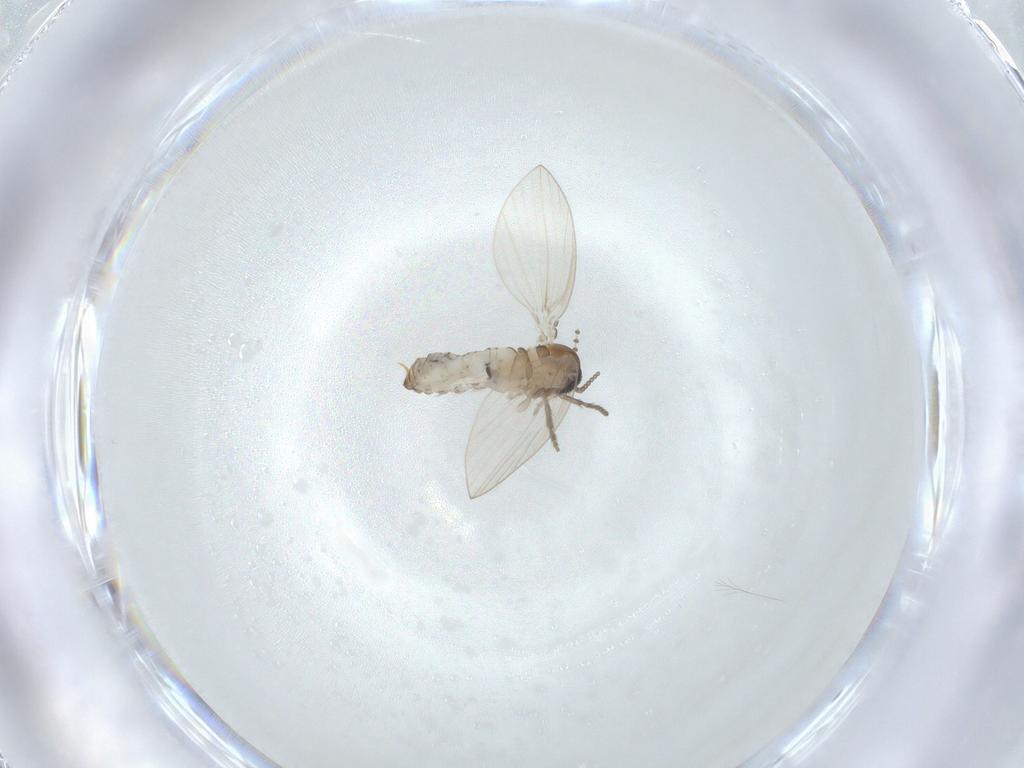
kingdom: Animalia
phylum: Arthropoda
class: Insecta
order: Diptera
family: Psychodidae
